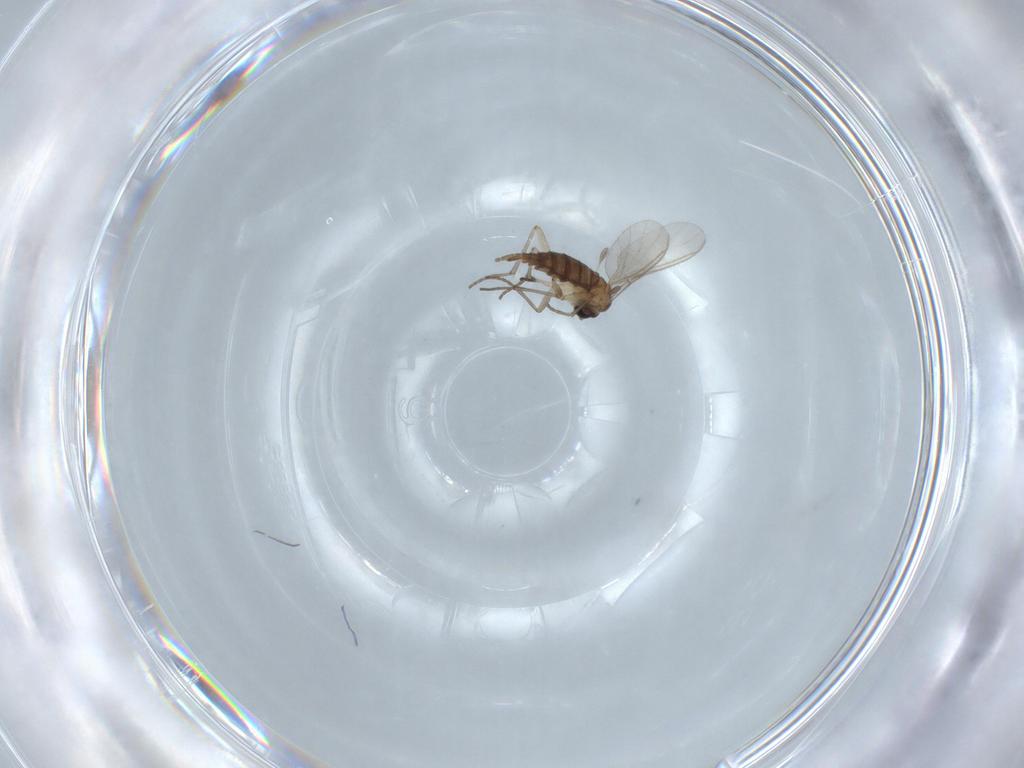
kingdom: Animalia
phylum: Arthropoda
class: Insecta
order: Diptera
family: Sciaridae
